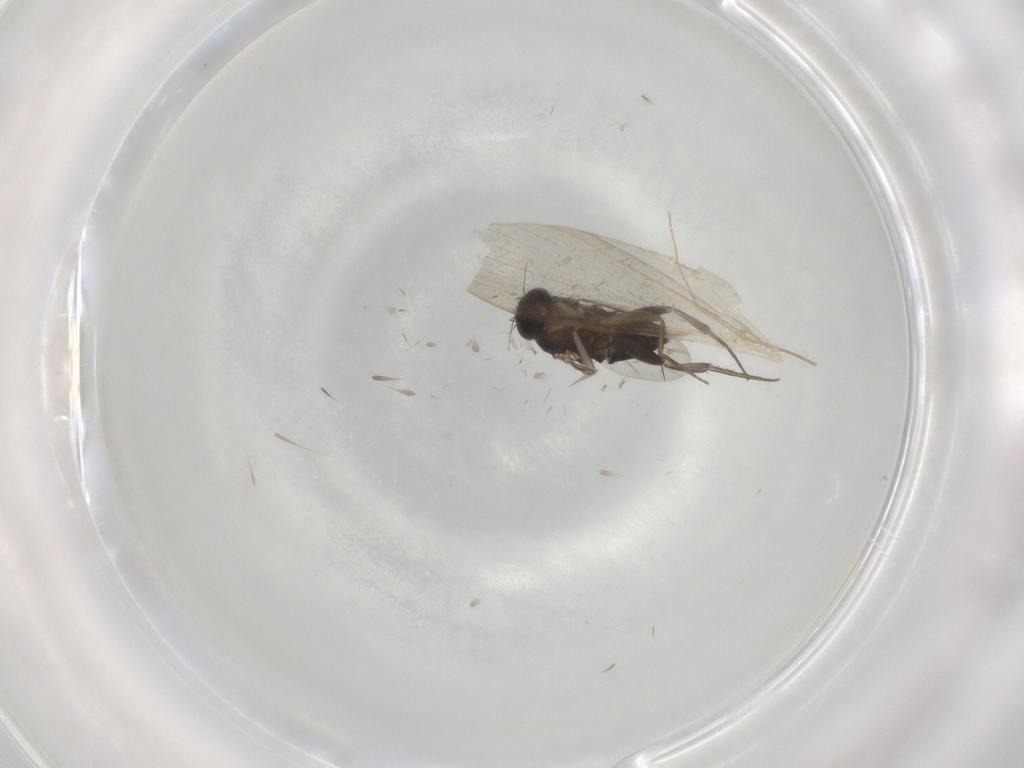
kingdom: Animalia
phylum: Arthropoda
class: Insecta
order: Diptera
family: Phoridae
